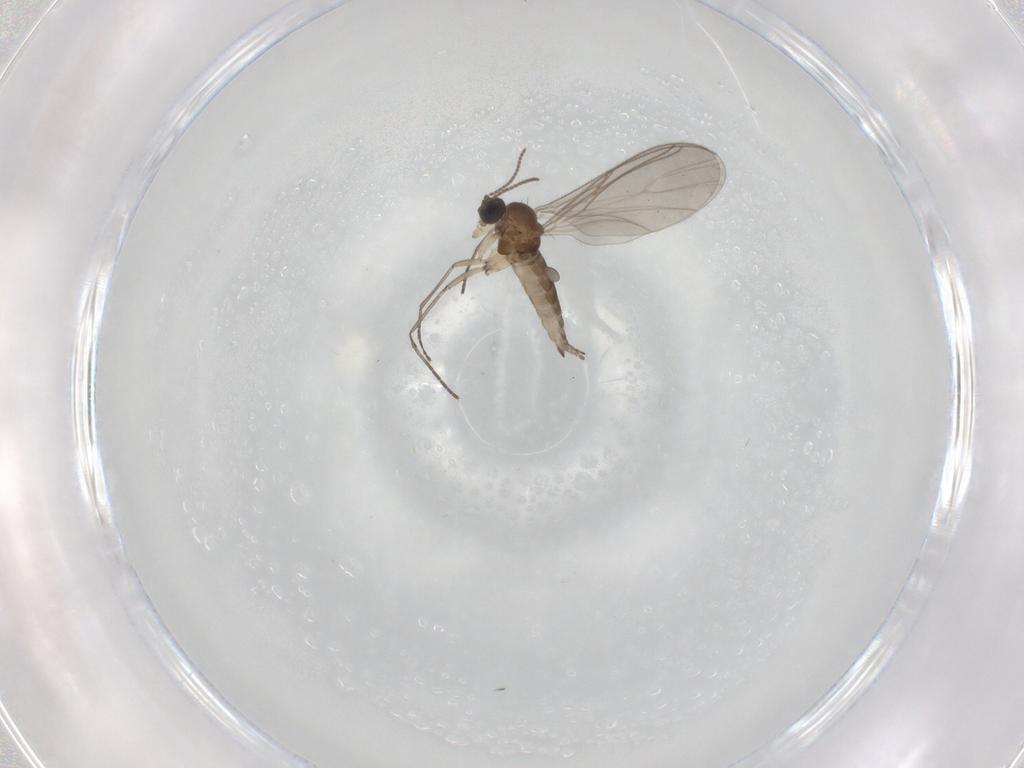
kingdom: Animalia
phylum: Arthropoda
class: Insecta
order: Diptera
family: Sciaridae
